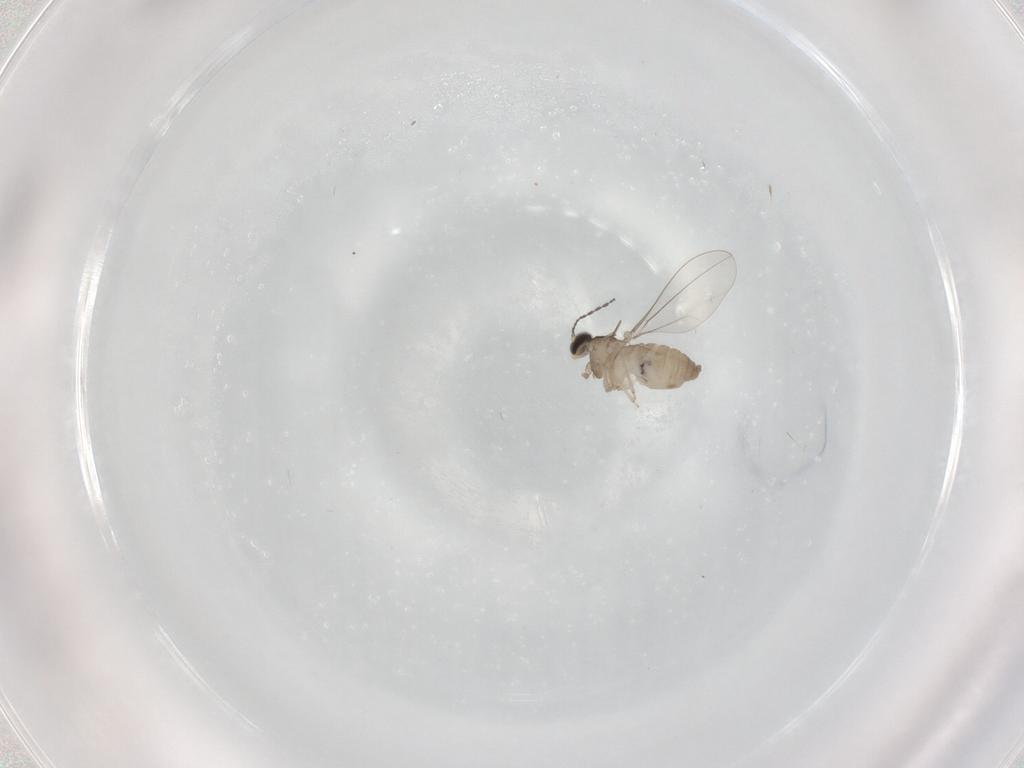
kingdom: Animalia
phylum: Arthropoda
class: Insecta
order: Diptera
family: Cecidomyiidae
